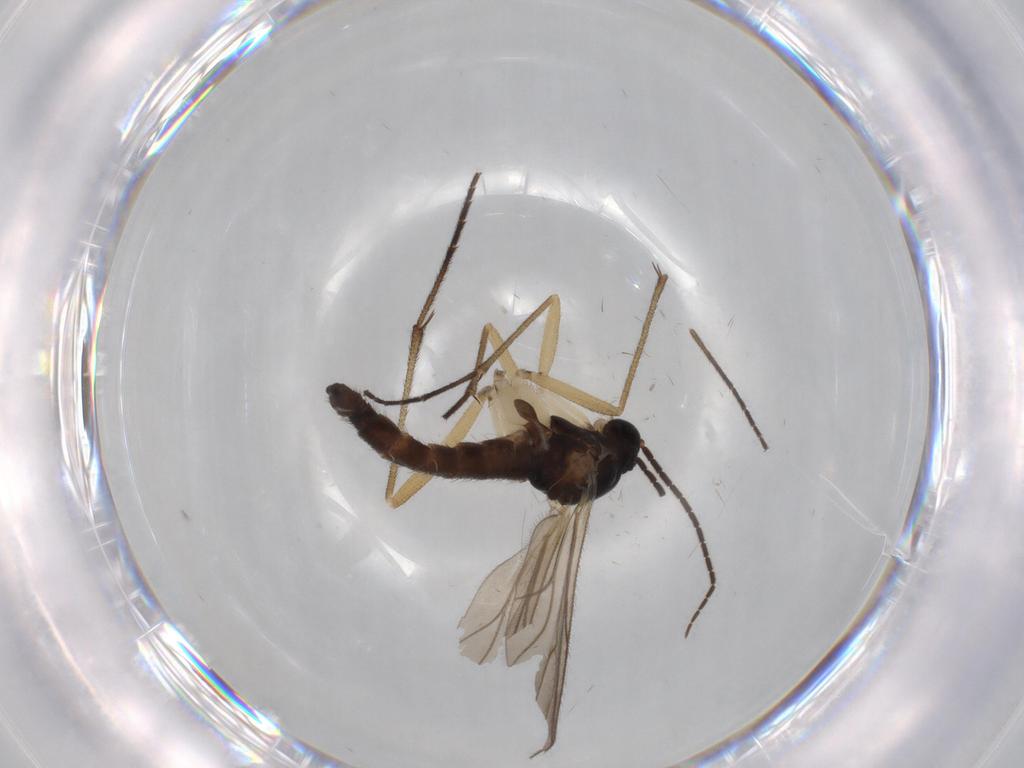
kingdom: Animalia
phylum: Arthropoda
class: Insecta
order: Diptera
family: Sciaridae
